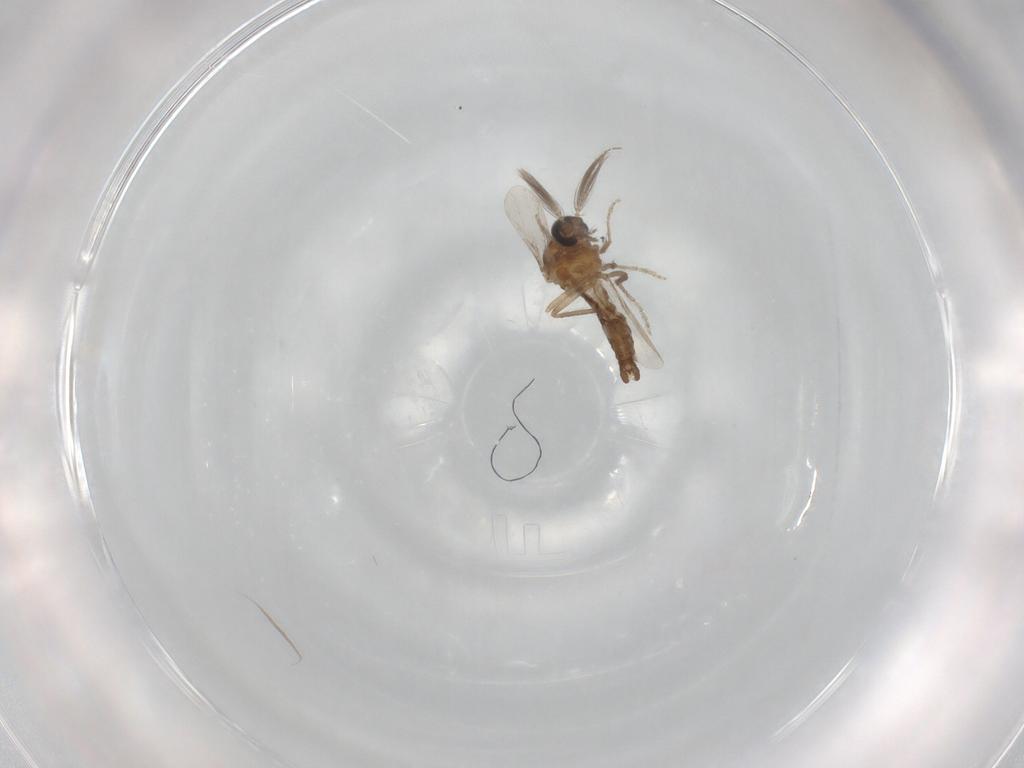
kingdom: Animalia
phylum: Arthropoda
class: Insecta
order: Diptera
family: Ceratopogonidae
